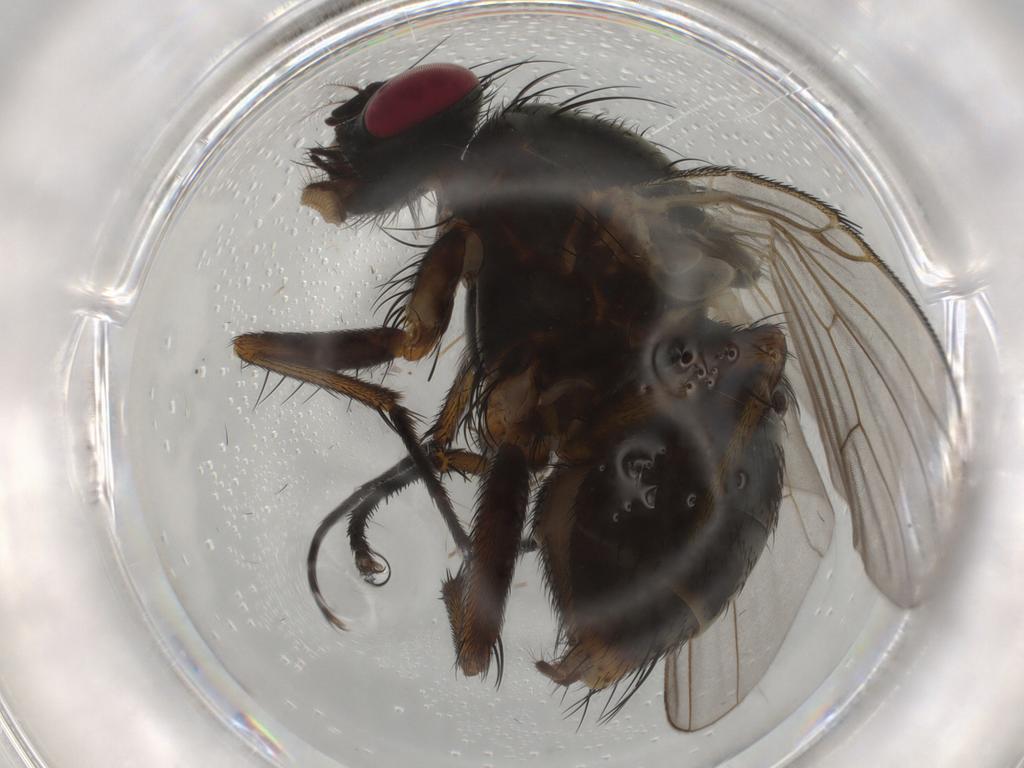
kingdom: Animalia
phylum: Arthropoda
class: Insecta
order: Diptera
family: Muscidae
